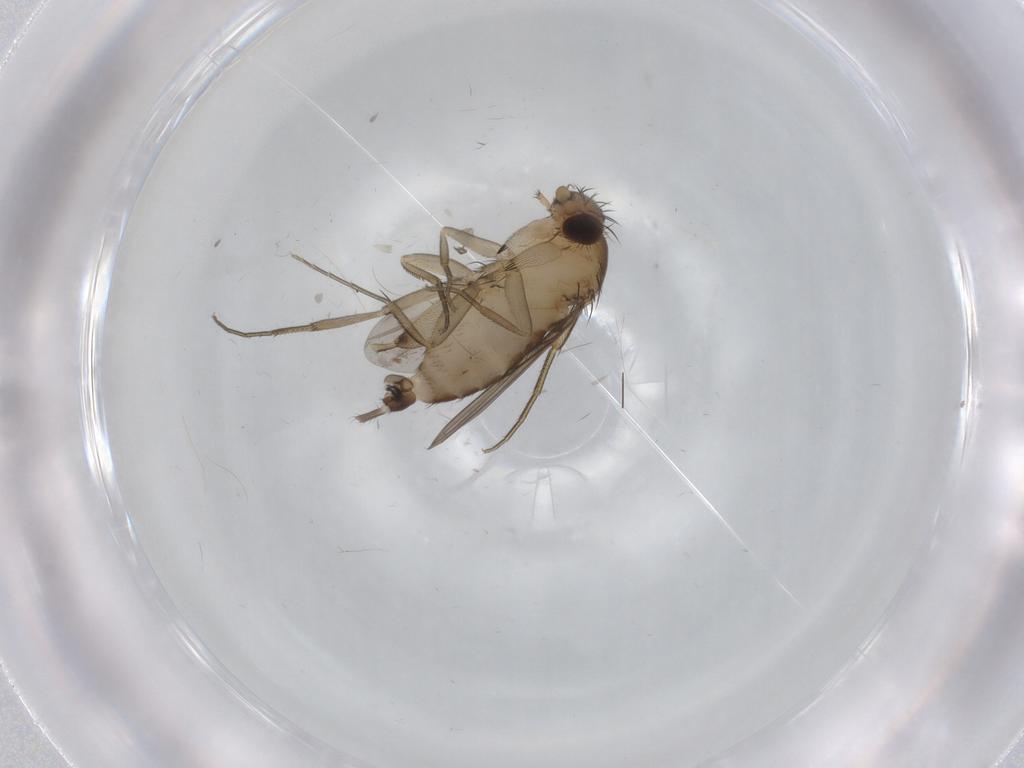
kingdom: Animalia
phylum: Arthropoda
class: Insecta
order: Diptera
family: Phoridae
